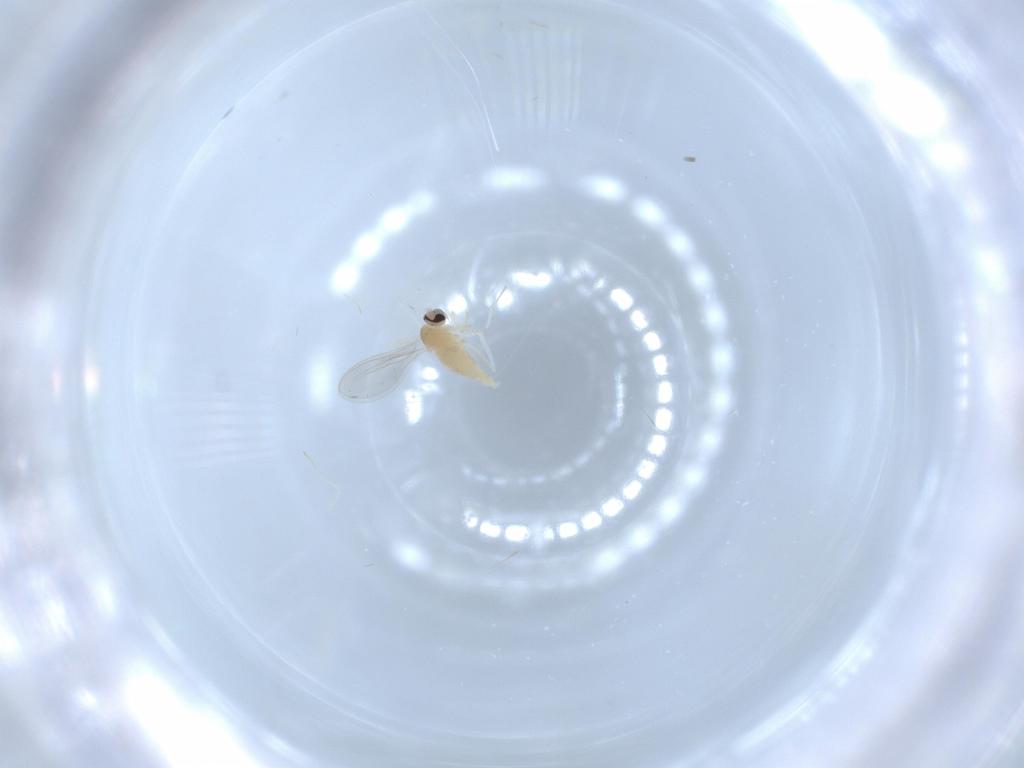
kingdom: Animalia
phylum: Arthropoda
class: Insecta
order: Diptera
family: Cecidomyiidae
